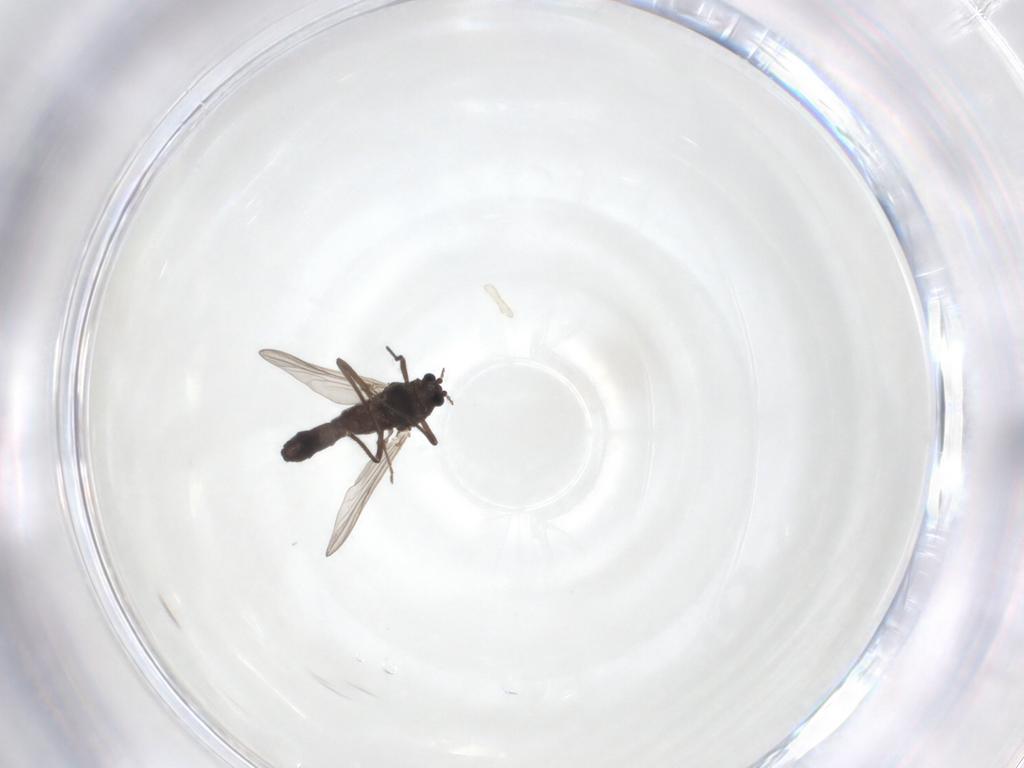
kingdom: Animalia
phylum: Arthropoda
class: Insecta
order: Diptera
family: Chironomidae
